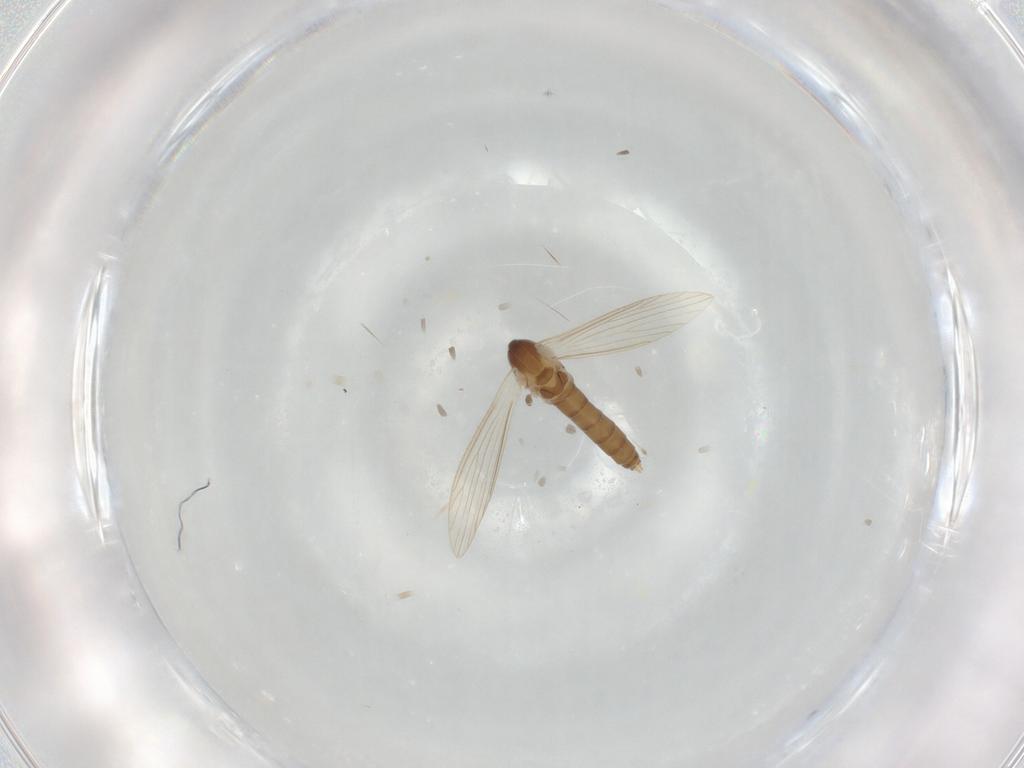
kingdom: Animalia
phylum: Arthropoda
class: Insecta
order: Diptera
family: Psychodidae
